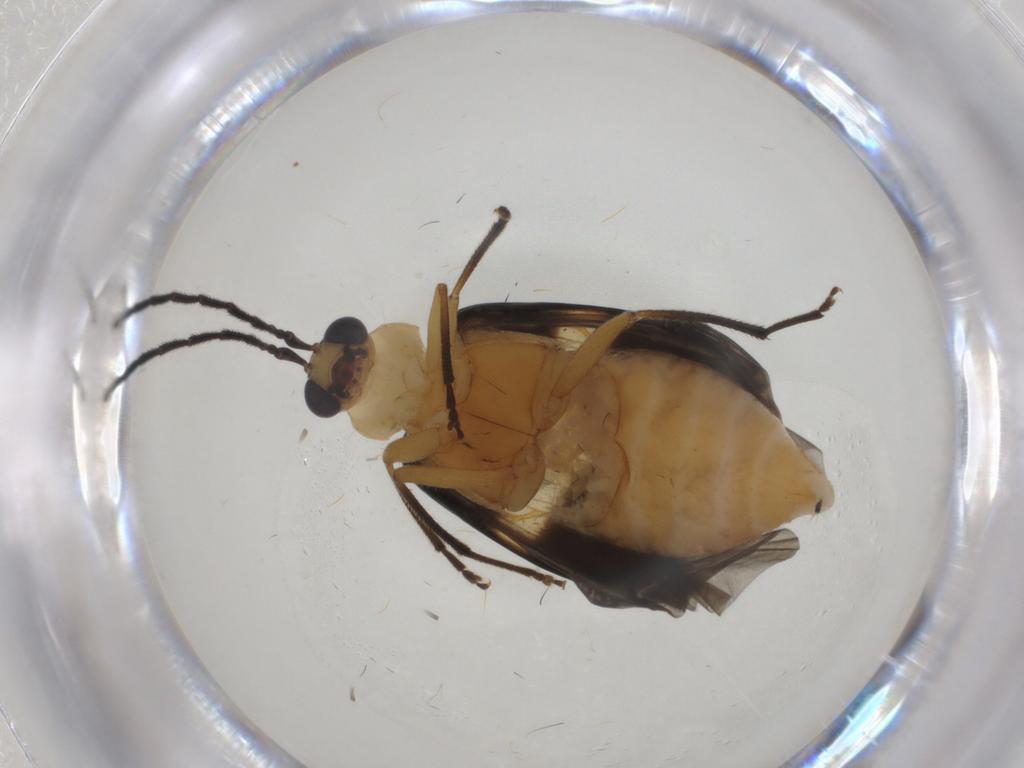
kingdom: Animalia
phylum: Arthropoda
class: Insecta
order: Coleoptera
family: Chrysomelidae
